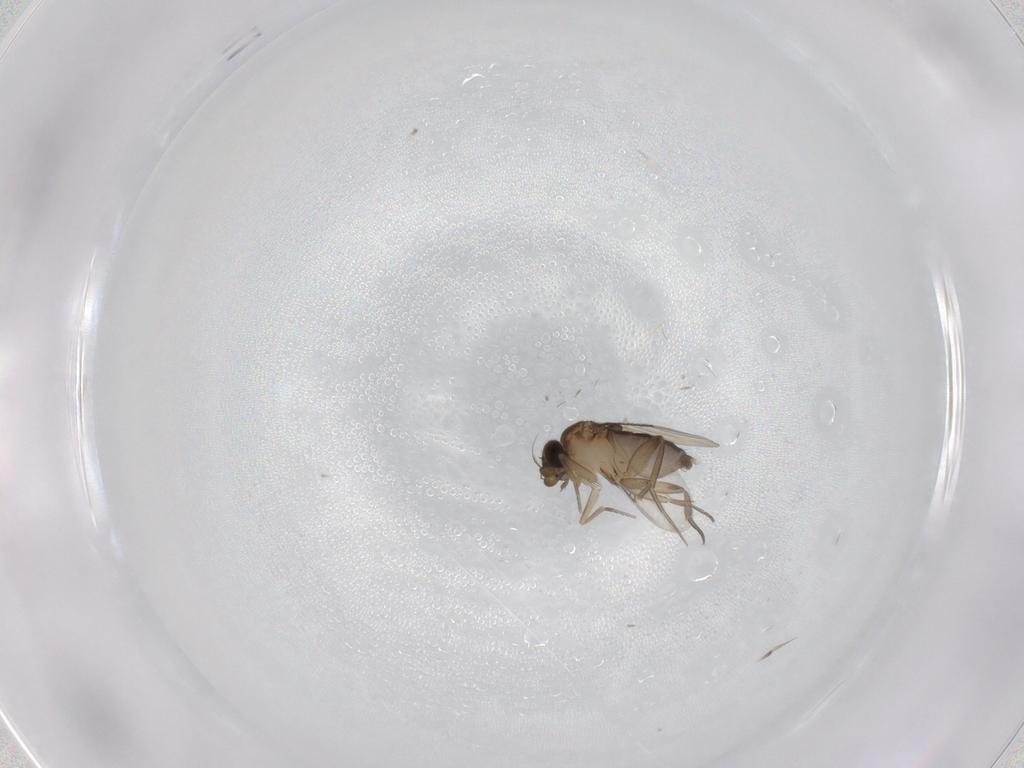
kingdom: Animalia
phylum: Arthropoda
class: Insecta
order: Diptera
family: Phoridae
